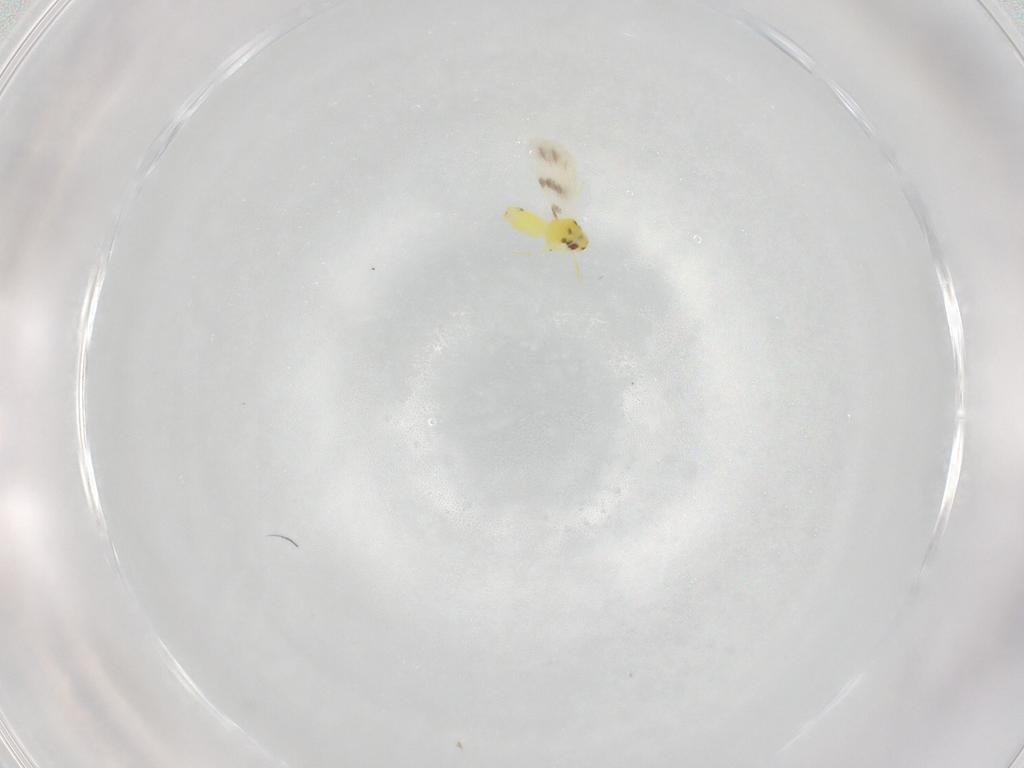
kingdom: Animalia
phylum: Arthropoda
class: Insecta
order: Hemiptera
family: Aleyrodidae
